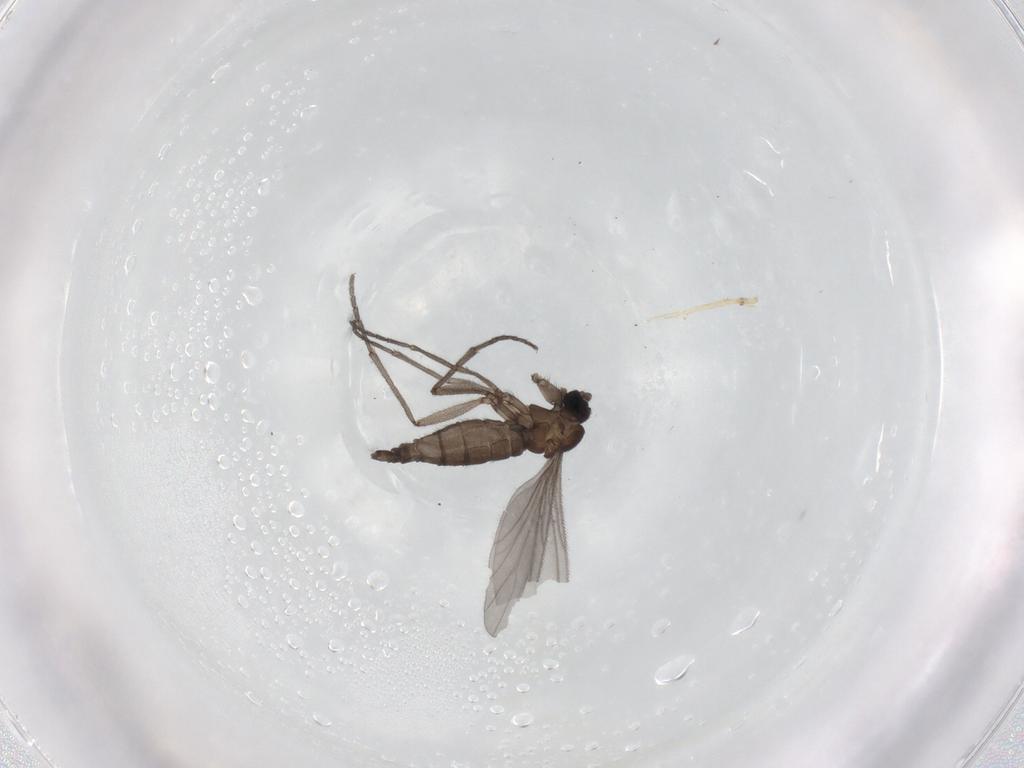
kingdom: Animalia
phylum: Arthropoda
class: Insecta
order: Diptera
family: Sciaridae
